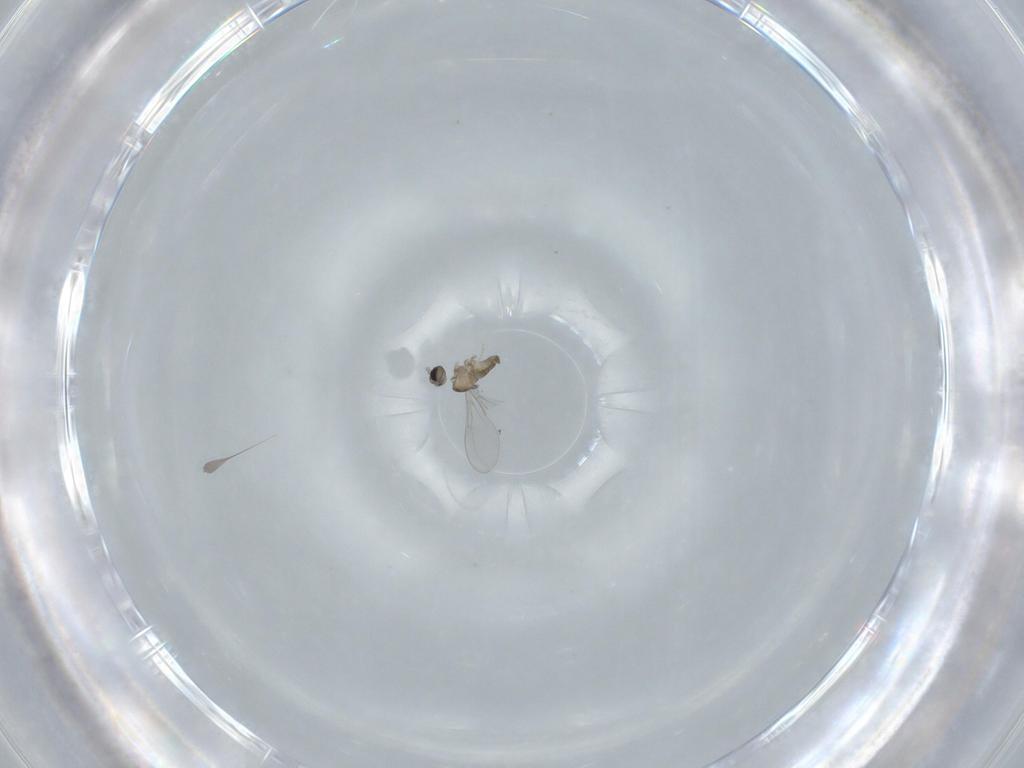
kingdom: Animalia
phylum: Arthropoda
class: Insecta
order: Diptera
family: Cecidomyiidae
